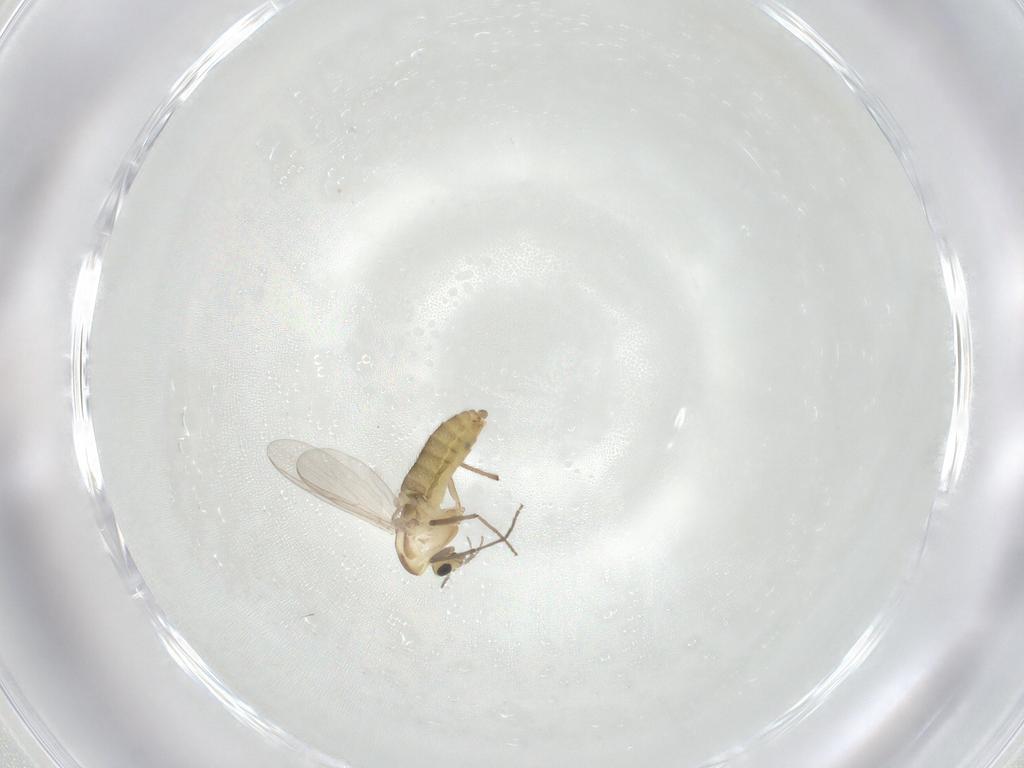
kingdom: Animalia
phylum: Arthropoda
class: Insecta
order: Diptera
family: Chironomidae
